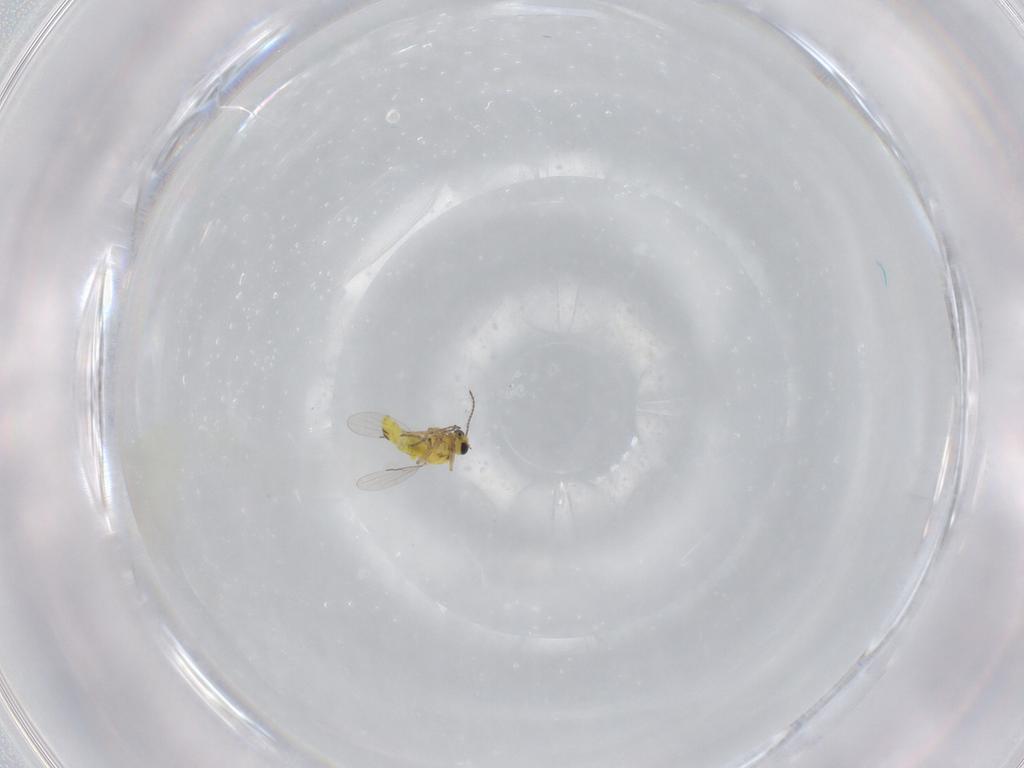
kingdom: Animalia
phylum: Arthropoda
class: Insecta
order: Diptera
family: Ceratopogonidae
